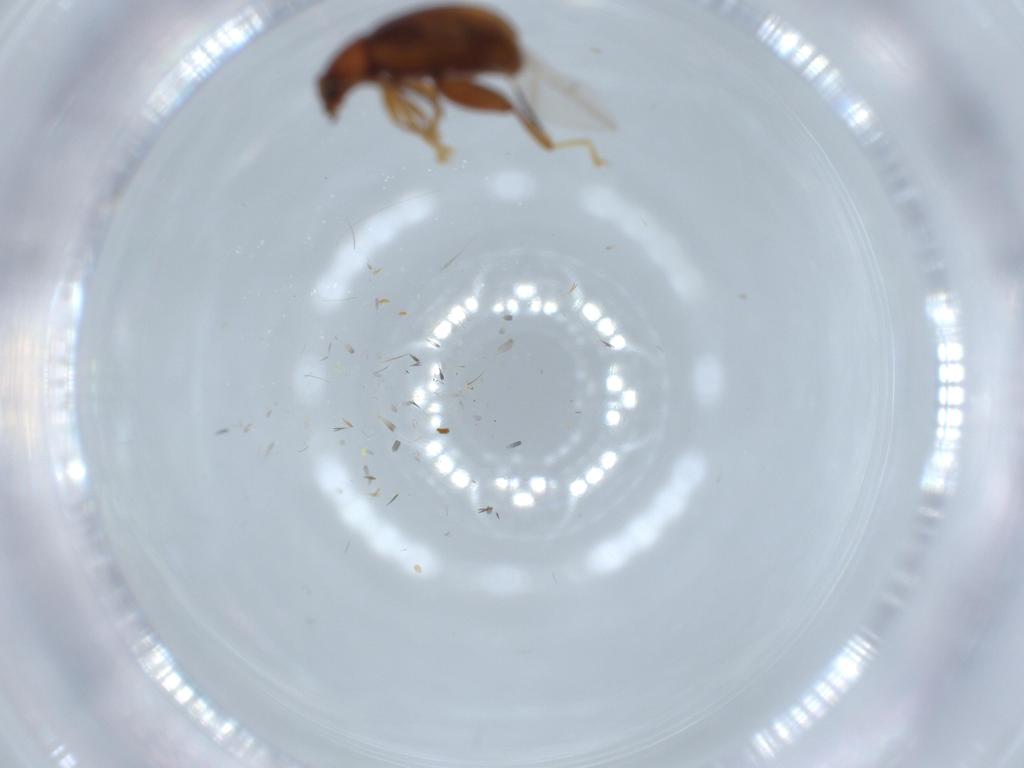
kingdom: Animalia
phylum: Arthropoda
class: Insecta
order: Coleoptera
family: Chrysomelidae
